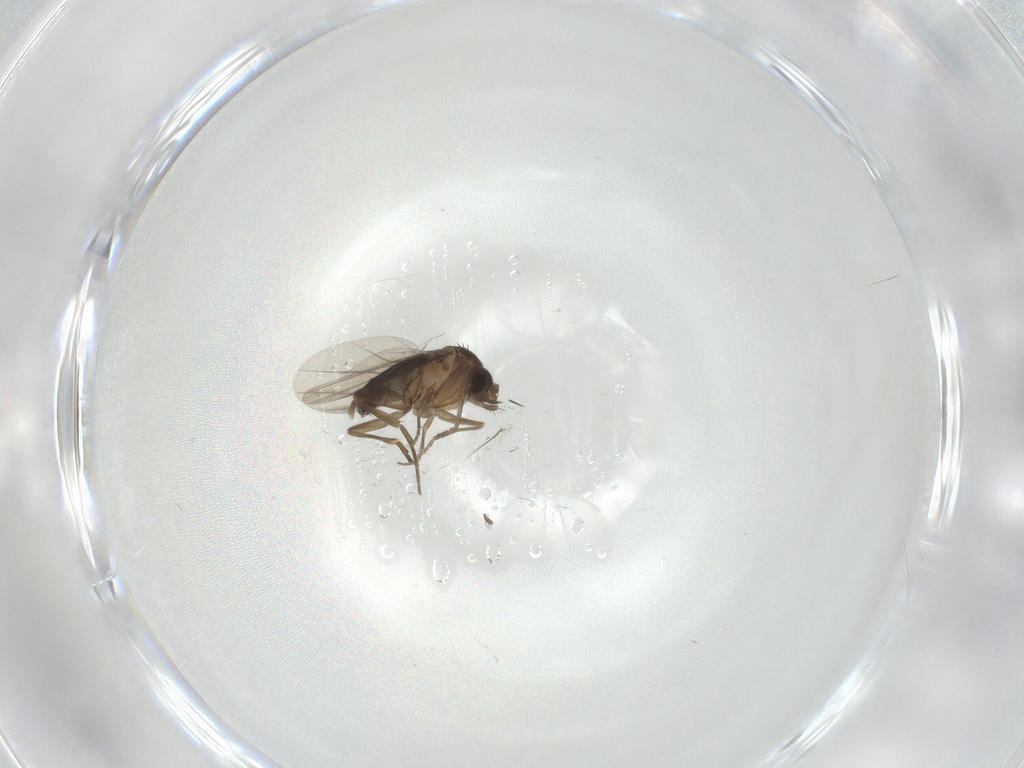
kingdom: Animalia
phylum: Arthropoda
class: Insecta
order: Diptera
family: Phoridae
